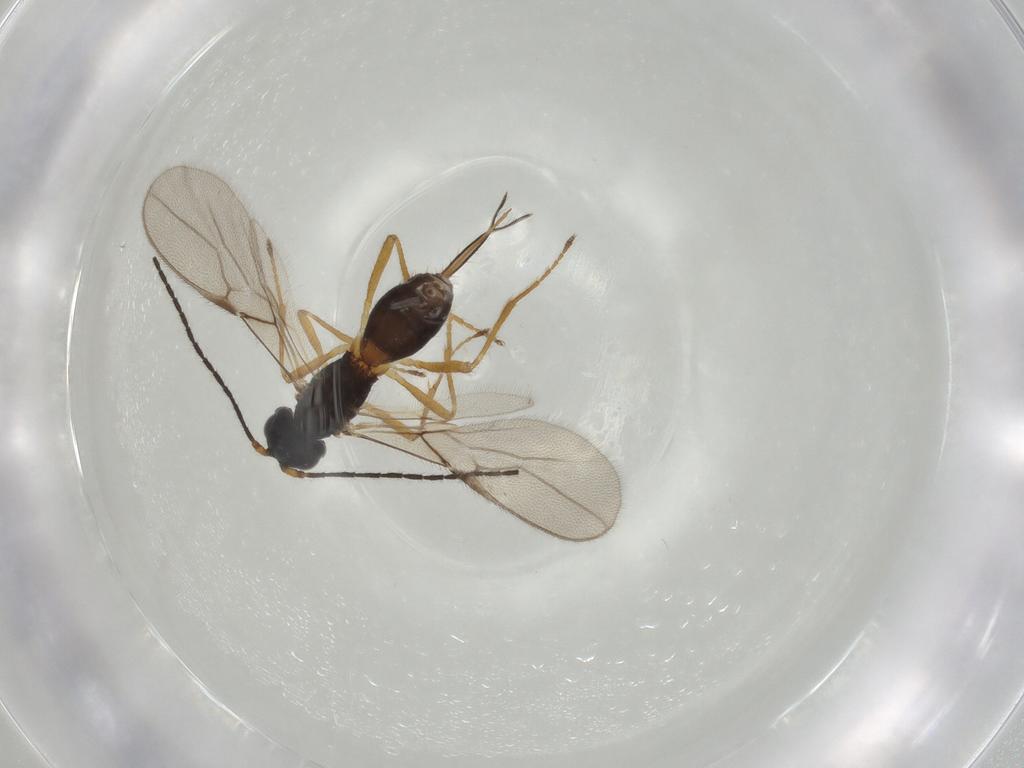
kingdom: Animalia
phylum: Arthropoda
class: Insecta
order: Hymenoptera
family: Braconidae
